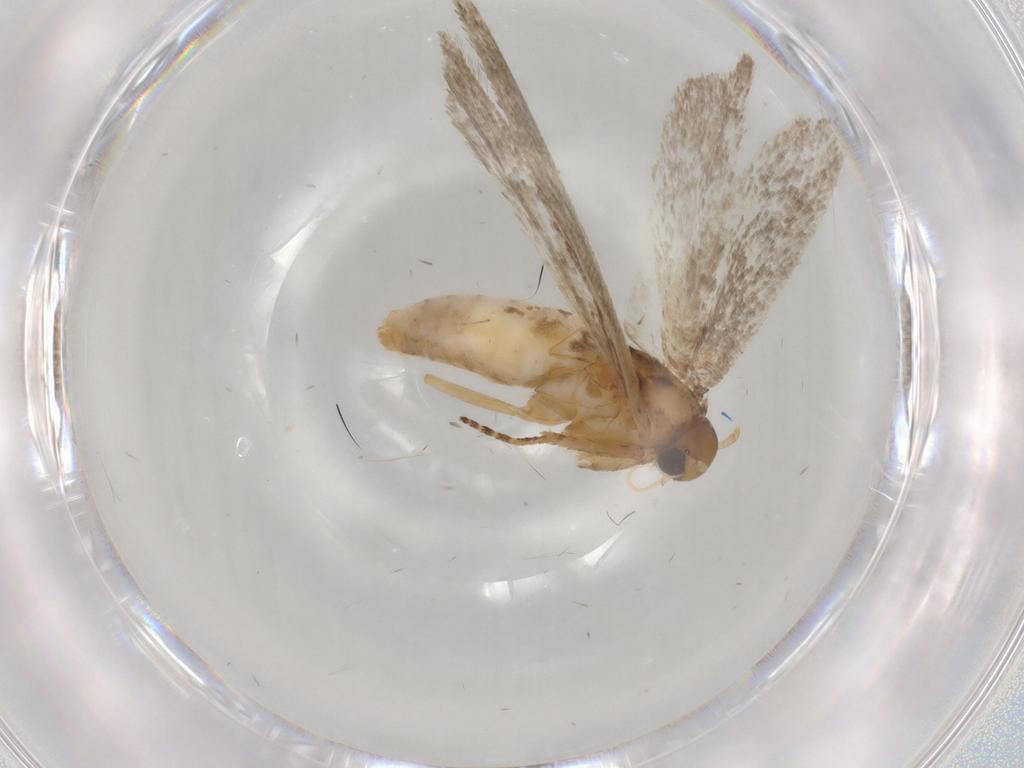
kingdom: Animalia
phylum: Arthropoda
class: Insecta
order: Lepidoptera
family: Gelechiidae
